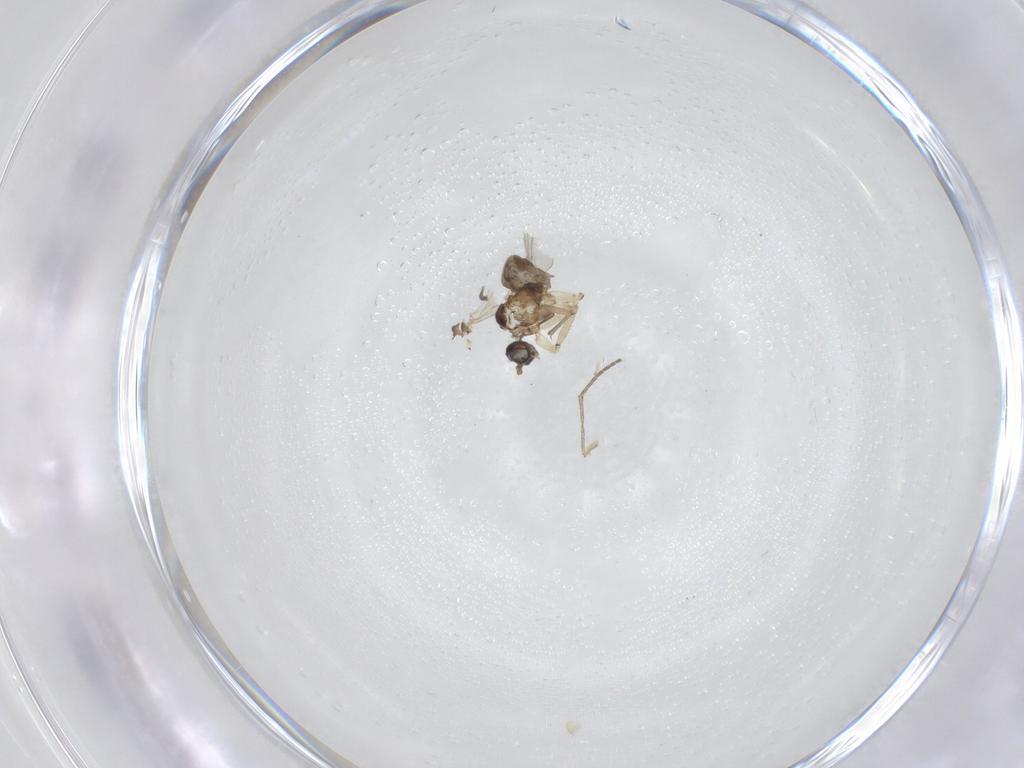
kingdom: Animalia
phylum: Arthropoda
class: Insecta
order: Diptera
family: Sciaridae
